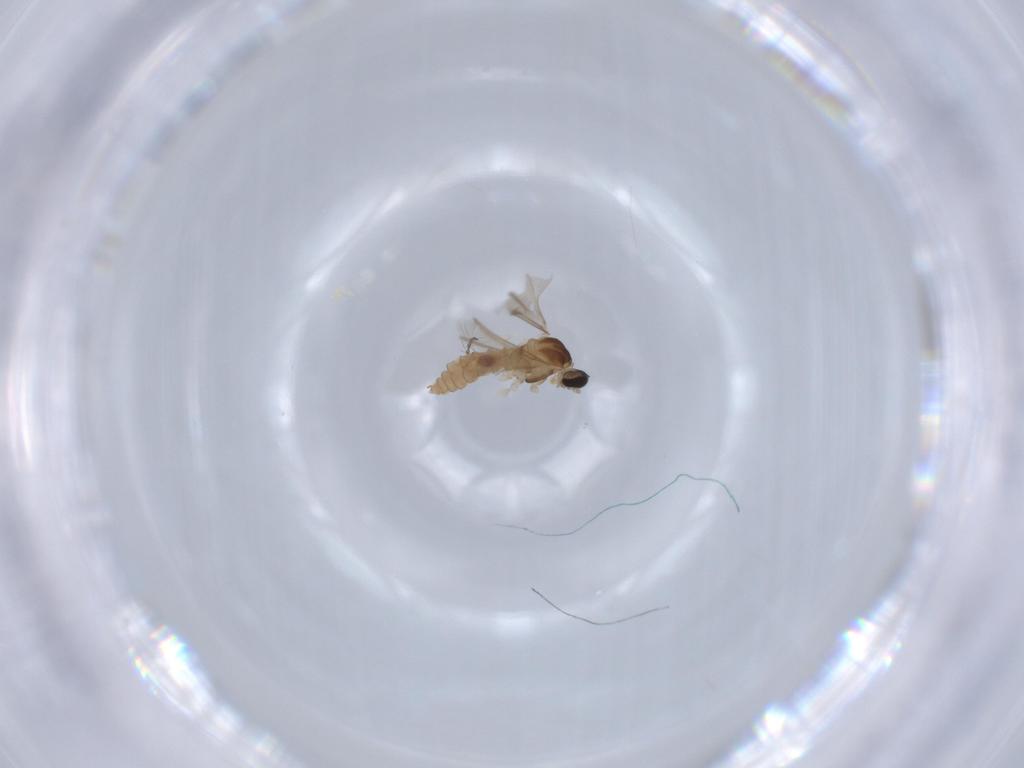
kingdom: Animalia
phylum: Arthropoda
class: Insecta
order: Diptera
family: Cecidomyiidae
